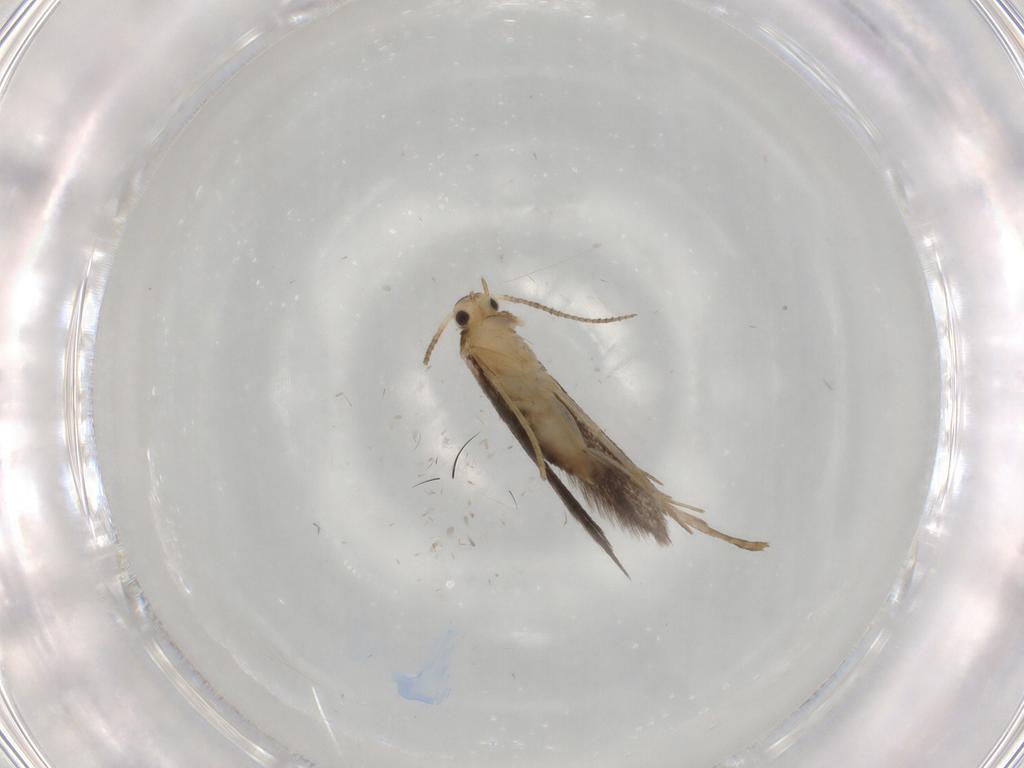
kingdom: Animalia
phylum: Arthropoda
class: Insecta
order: Lepidoptera
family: Schreckensteiniidae
